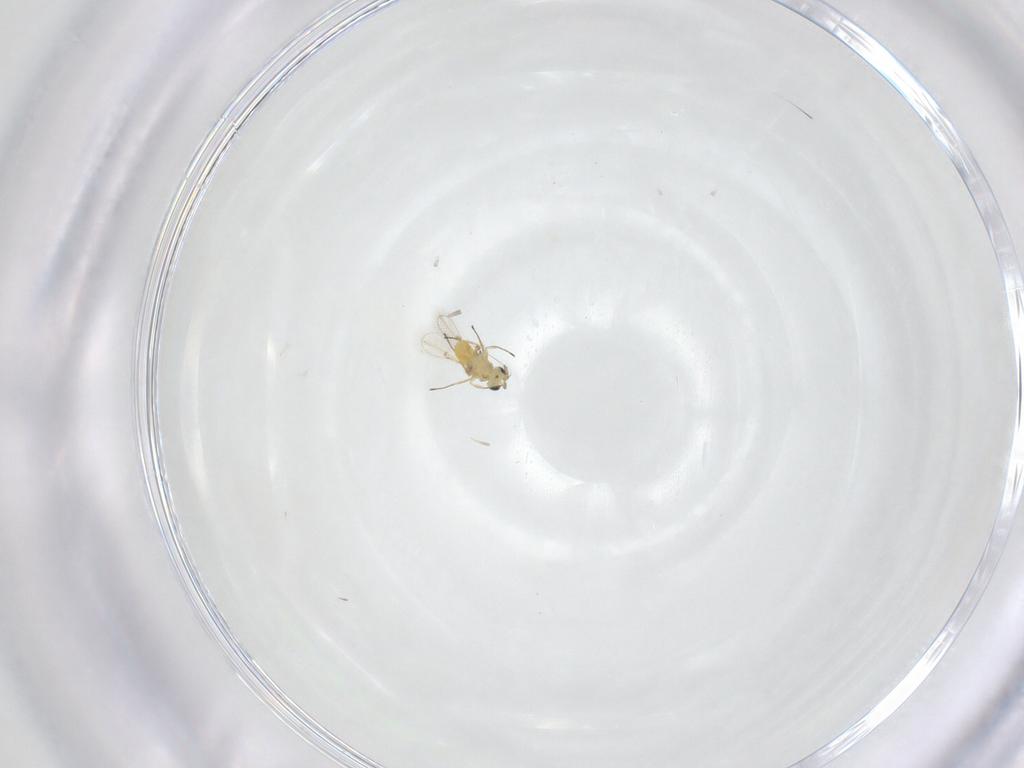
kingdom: Animalia
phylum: Arthropoda
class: Insecta
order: Hymenoptera
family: Trichogrammatidae
